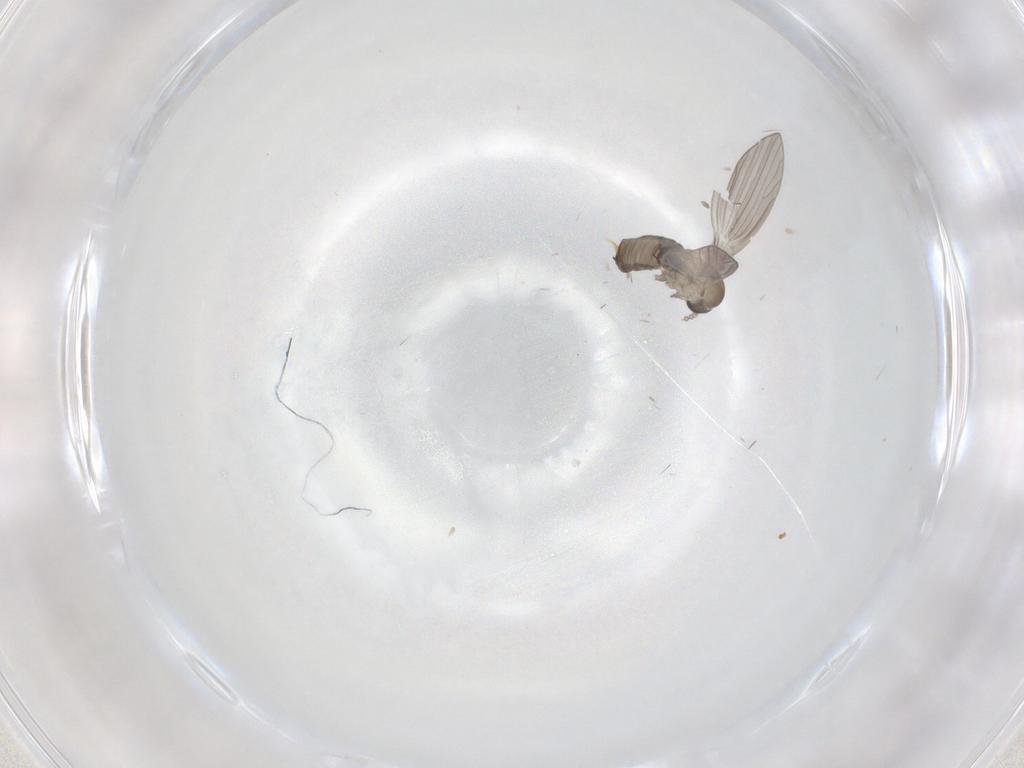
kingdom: Animalia
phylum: Arthropoda
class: Insecta
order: Diptera
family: Psychodidae
